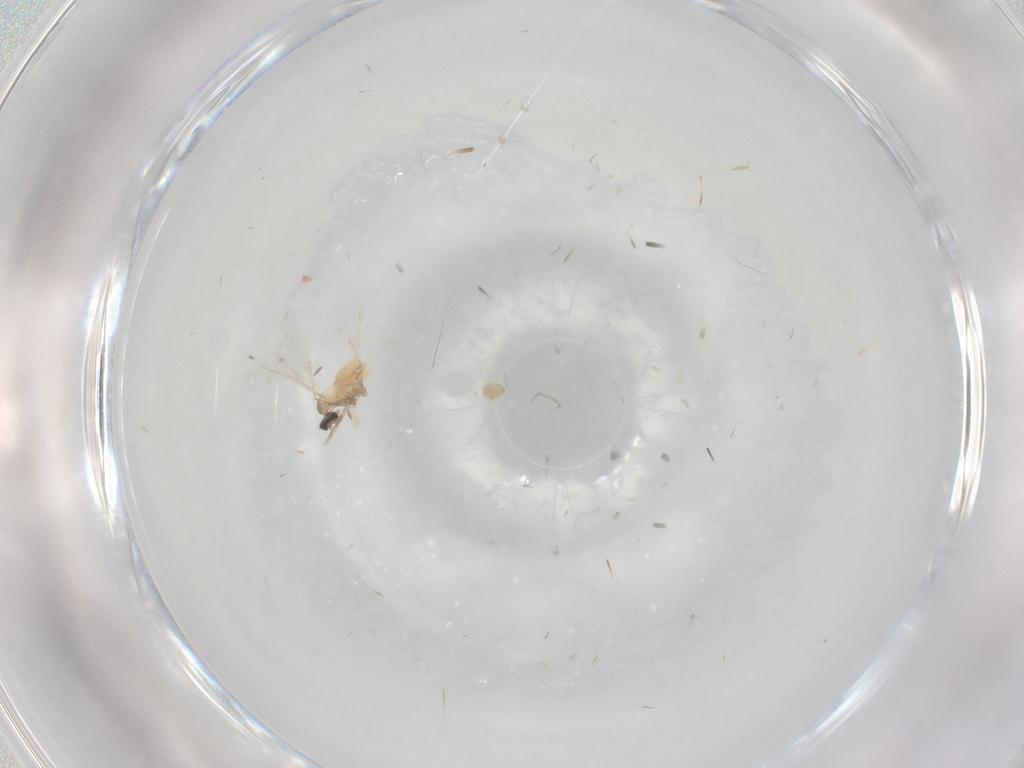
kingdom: Animalia
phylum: Arthropoda
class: Insecta
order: Diptera
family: Cecidomyiidae
